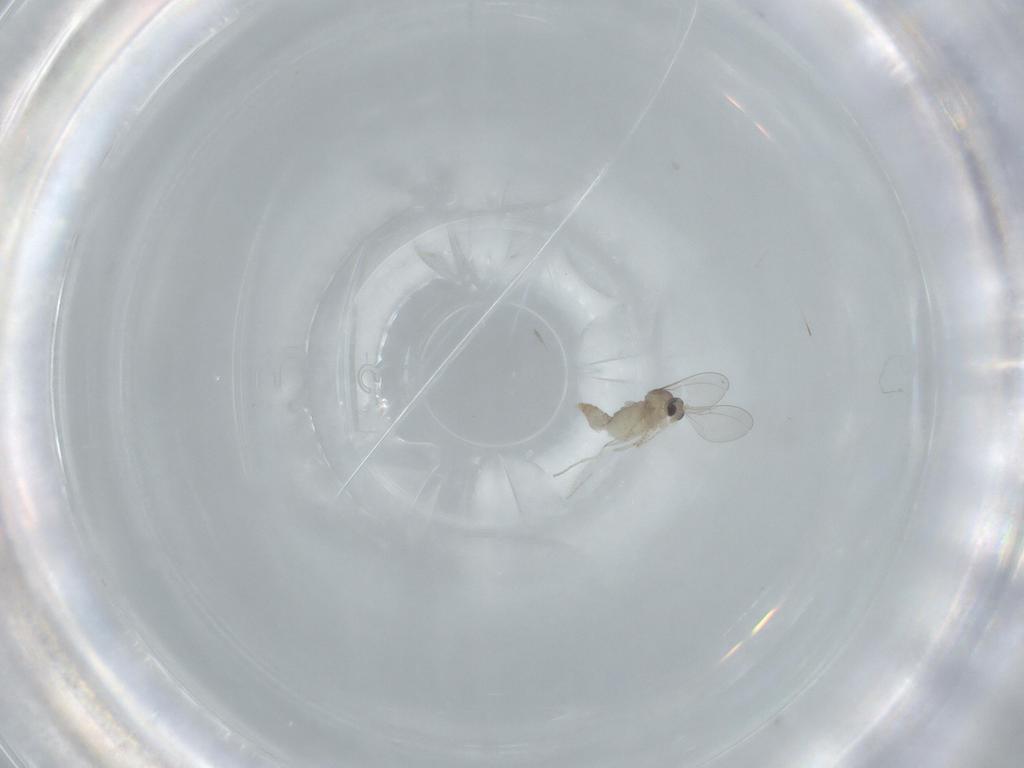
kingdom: Animalia
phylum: Arthropoda
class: Insecta
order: Diptera
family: Cecidomyiidae
